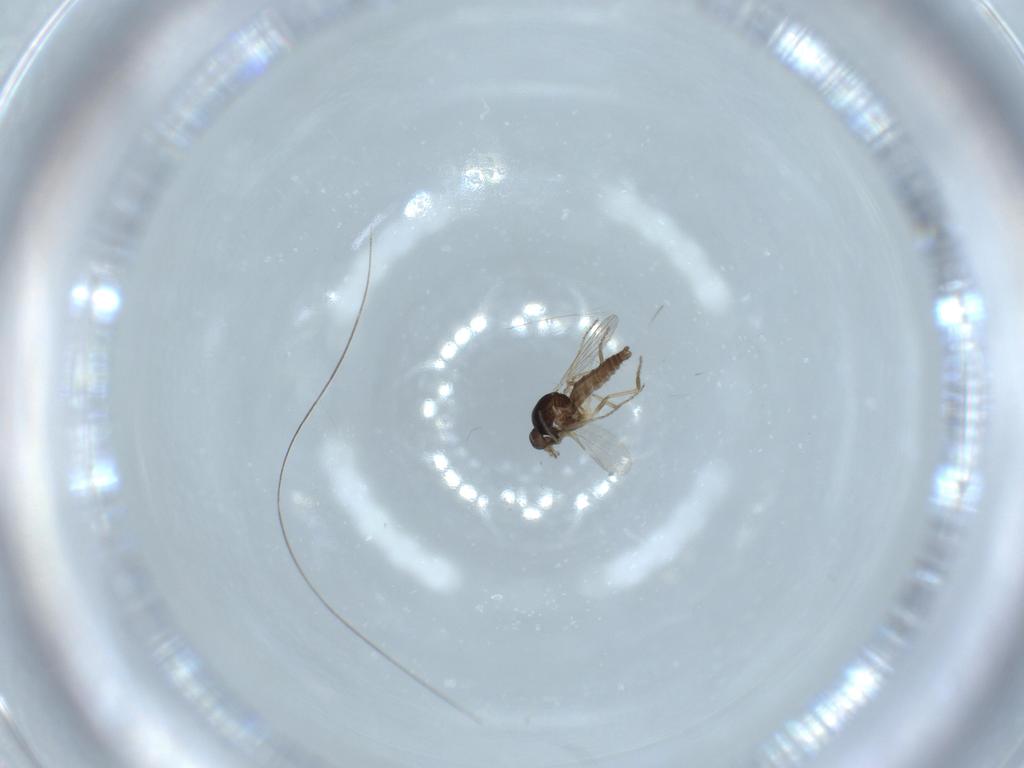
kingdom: Animalia
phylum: Arthropoda
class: Insecta
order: Diptera
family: Ceratopogonidae
